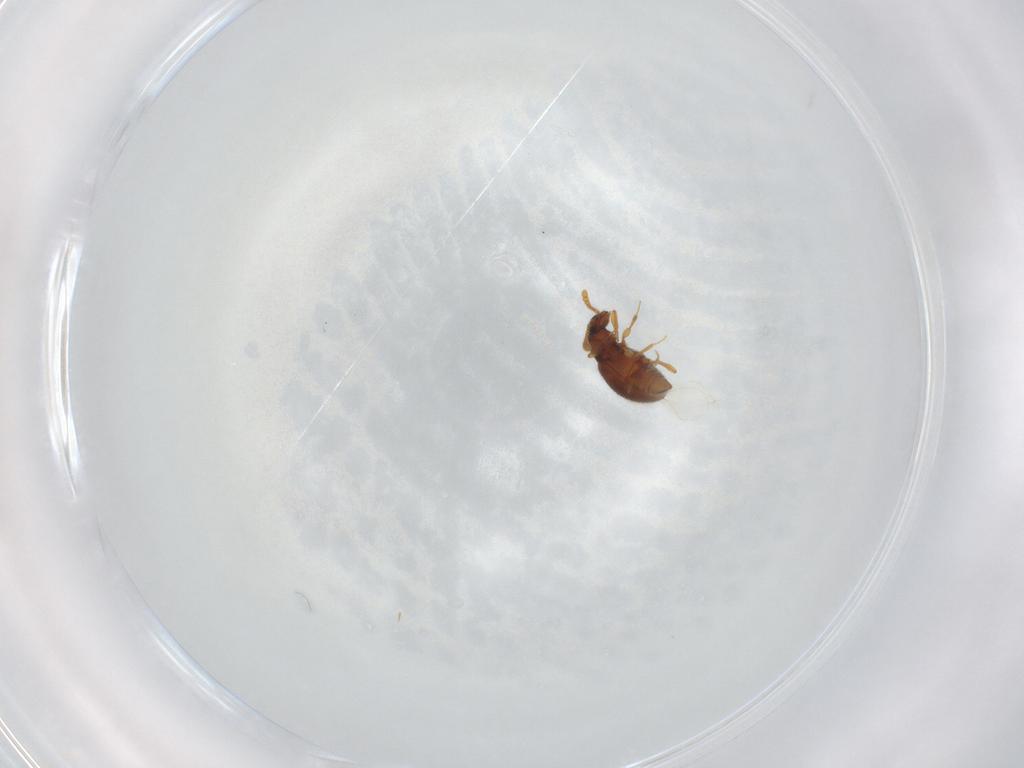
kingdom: Animalia
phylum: Arthropoda
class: Insecta
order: Coleoptera
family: Staphylinidae
